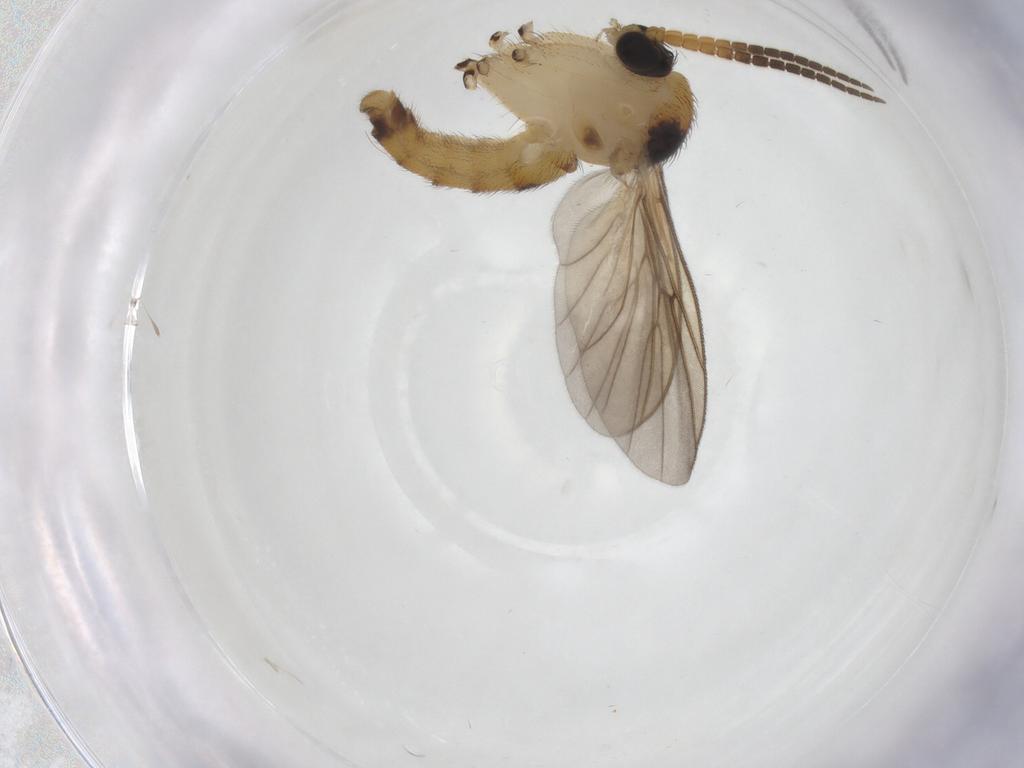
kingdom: Animalia
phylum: Arthropoda
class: Insecta
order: Diptera
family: Mycetophilidae
